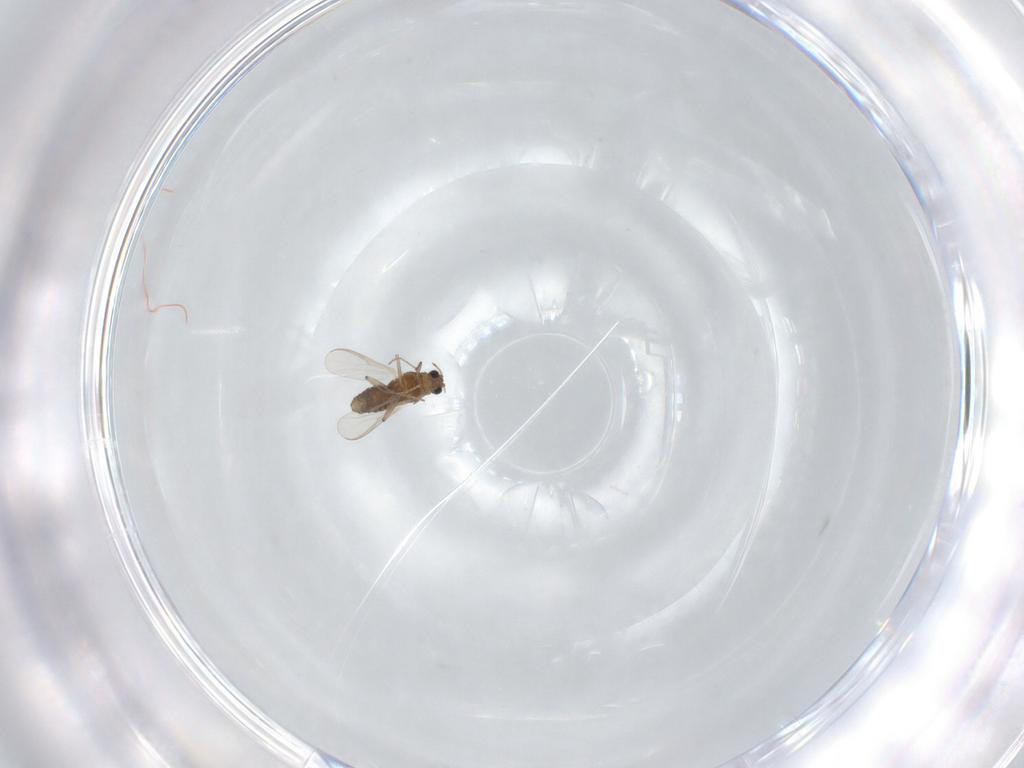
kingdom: Animalia
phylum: Arthropoda
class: Insecta
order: Diptera
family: Chironomidae
